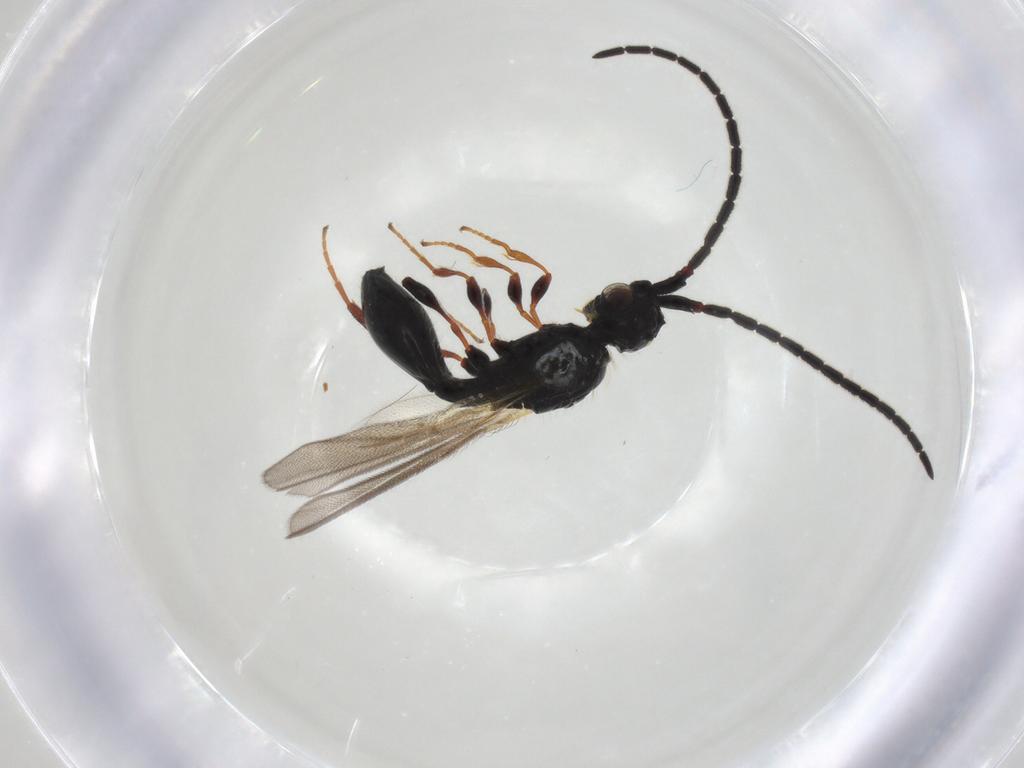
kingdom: Animalia
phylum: Arthropoda
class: Insecta
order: Hymenoptera
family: Diapriidae
